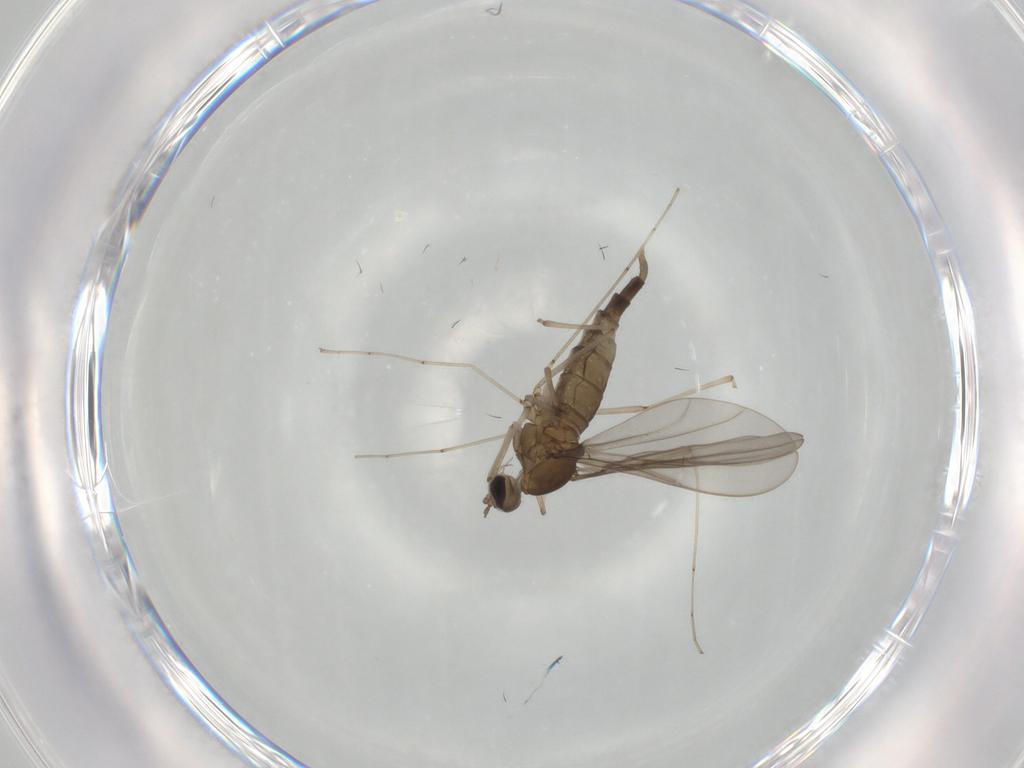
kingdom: Animalia
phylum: Arthropoda
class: Insecta
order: Diptera
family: Cecidomyiidae
